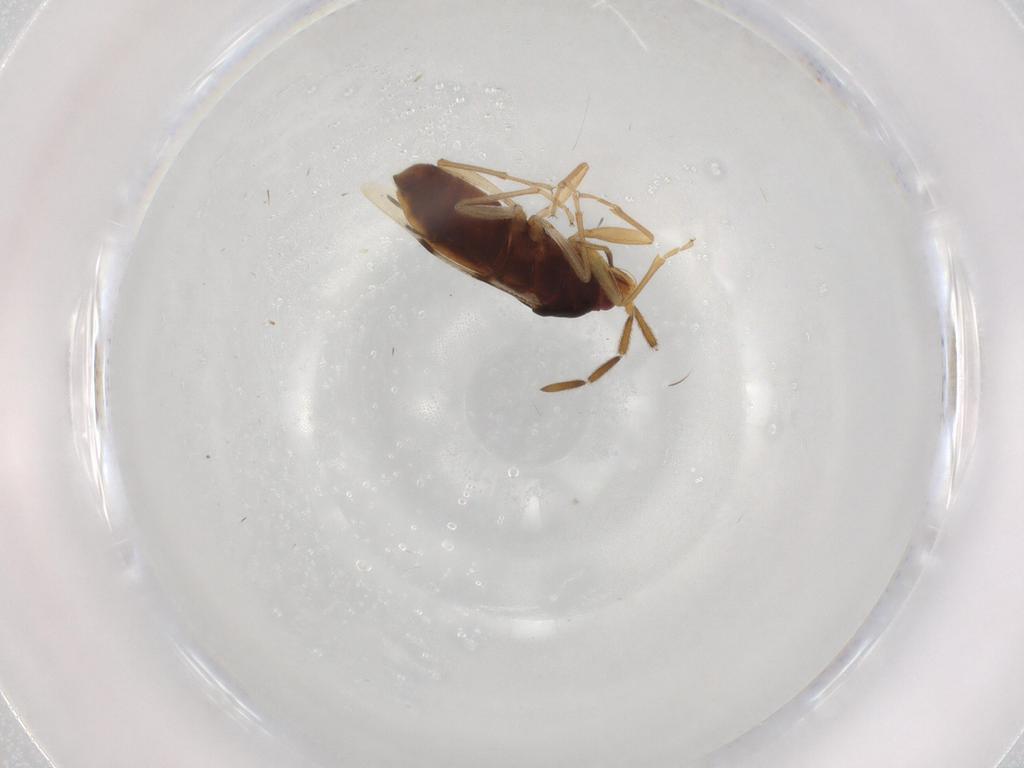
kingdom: Animalia
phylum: Arthropoda
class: Insecta
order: Hemiptera
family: Rhyparochromidae
